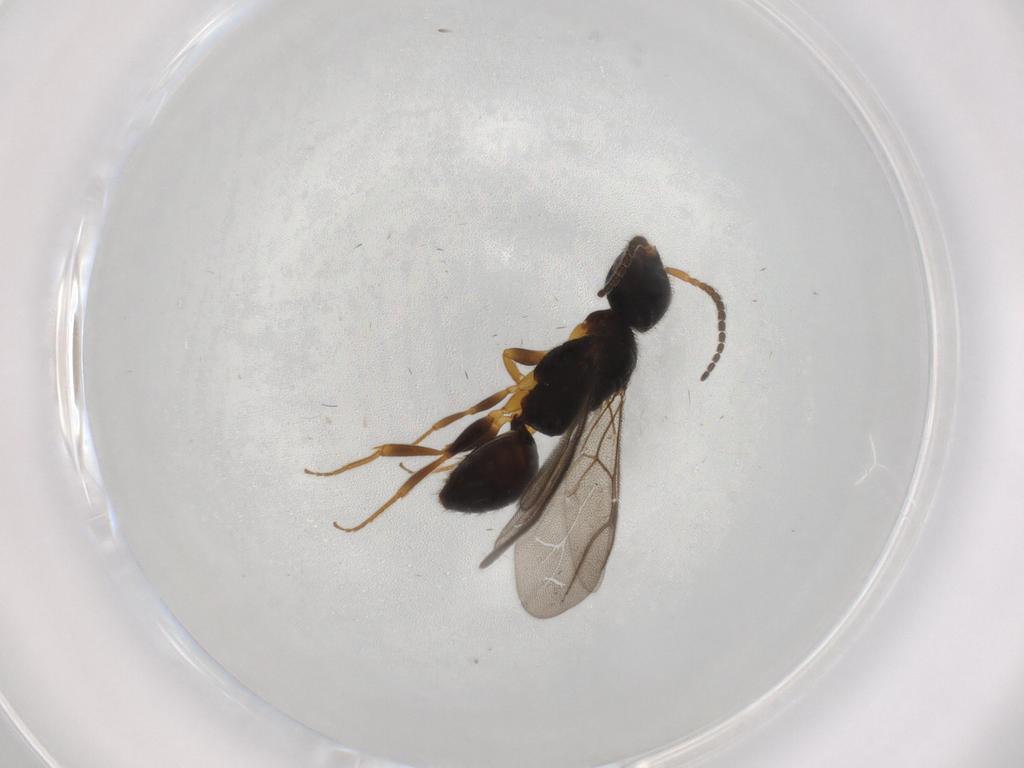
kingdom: Animalia
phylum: Arthropoda
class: Insecta
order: Hymenoptera
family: Bethylidae
